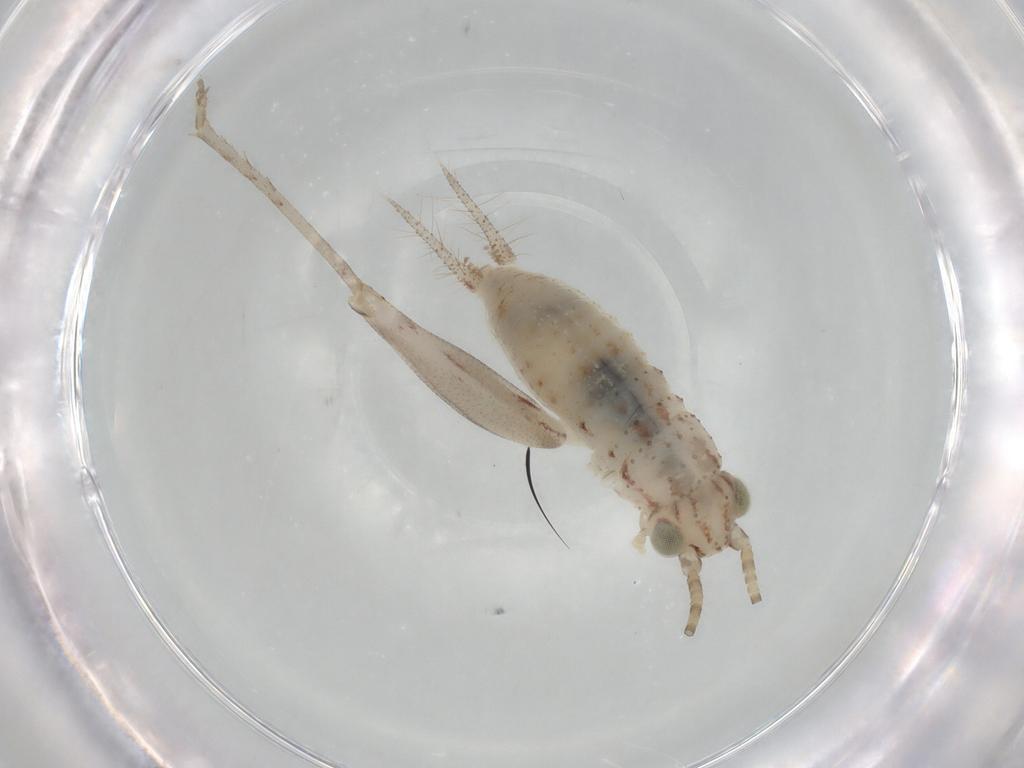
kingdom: Animalia
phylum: Arthropoda
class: Insecta
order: Orthoptera
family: Trigonidiidae
